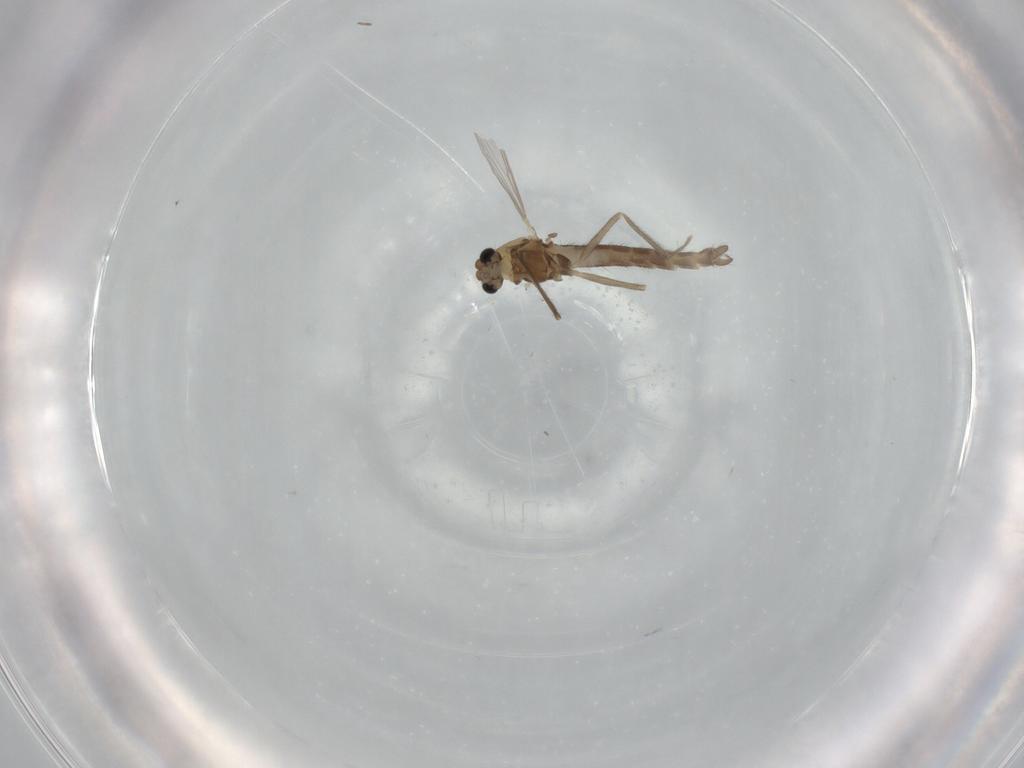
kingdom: Animalia
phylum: Arthropoda
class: Insecta
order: Diptera
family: Chironomidae
